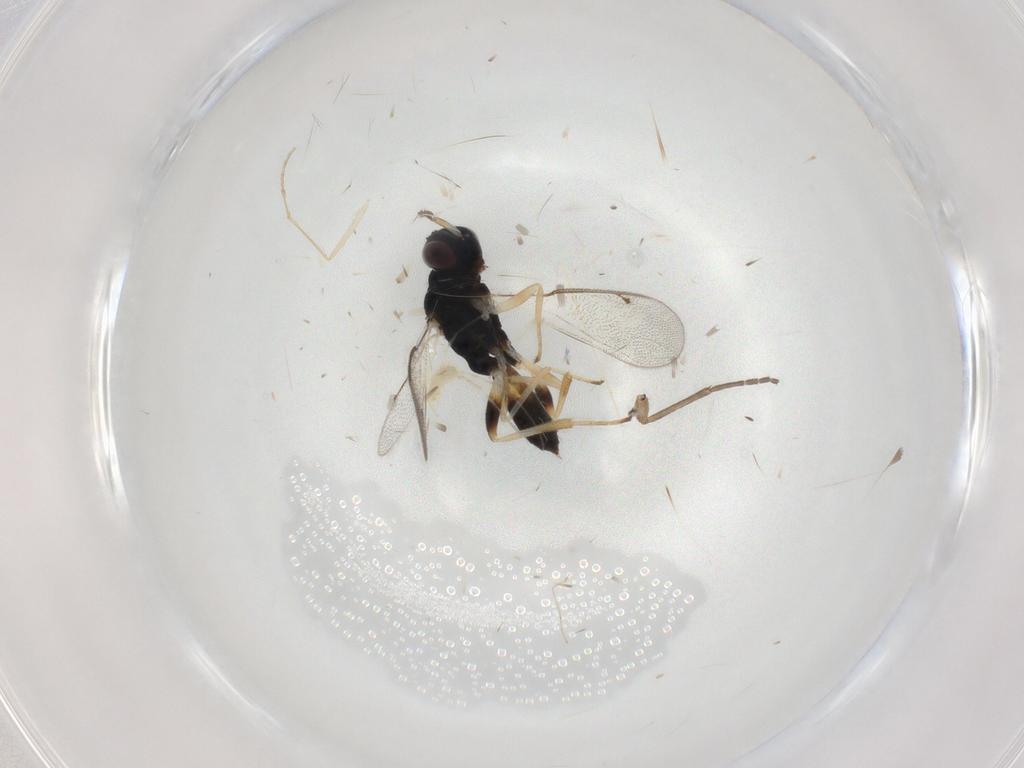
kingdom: Animalia
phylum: Arthropoda
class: Insecta
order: Hymenoptera
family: Eulophidae
